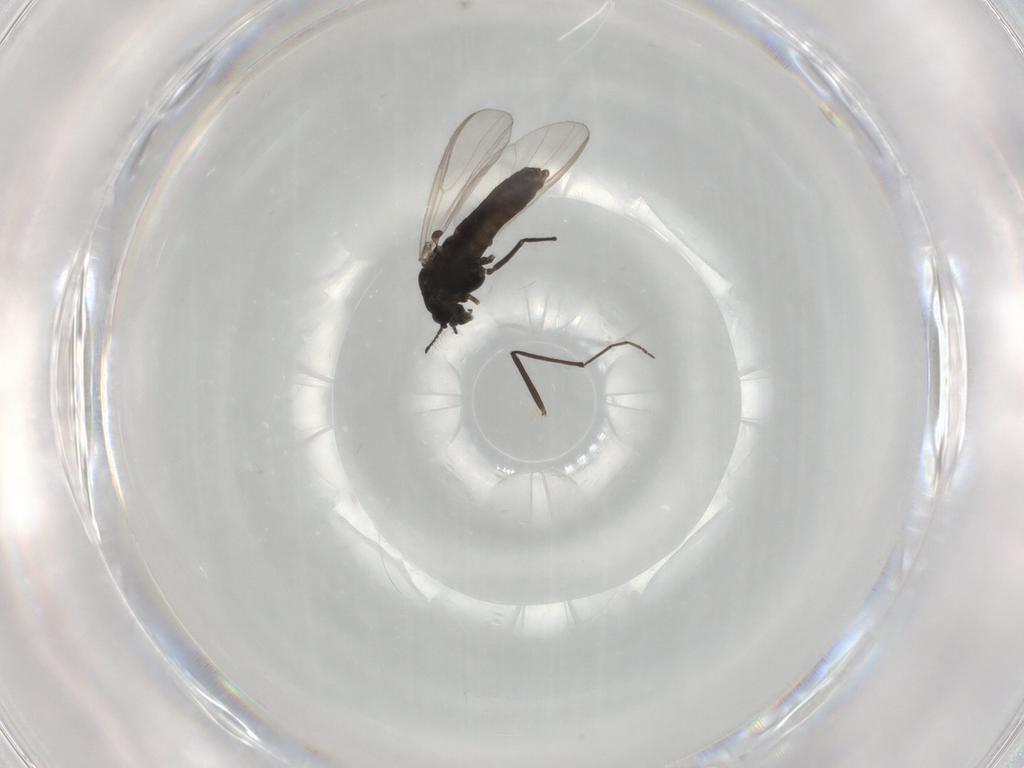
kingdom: Animalia
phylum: Arthropoda
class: Insecta
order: Diptera
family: Chironomidae
